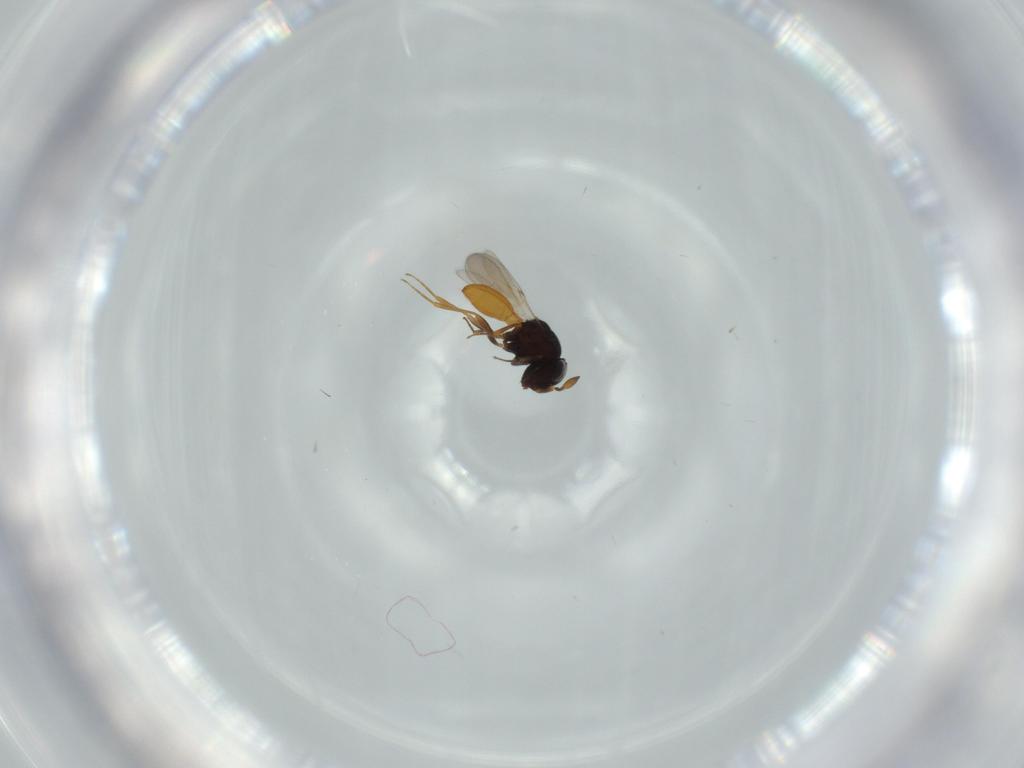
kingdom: Animalia
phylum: Arthropoda
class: Insecta
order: Hymenoptera
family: Scelionidae
